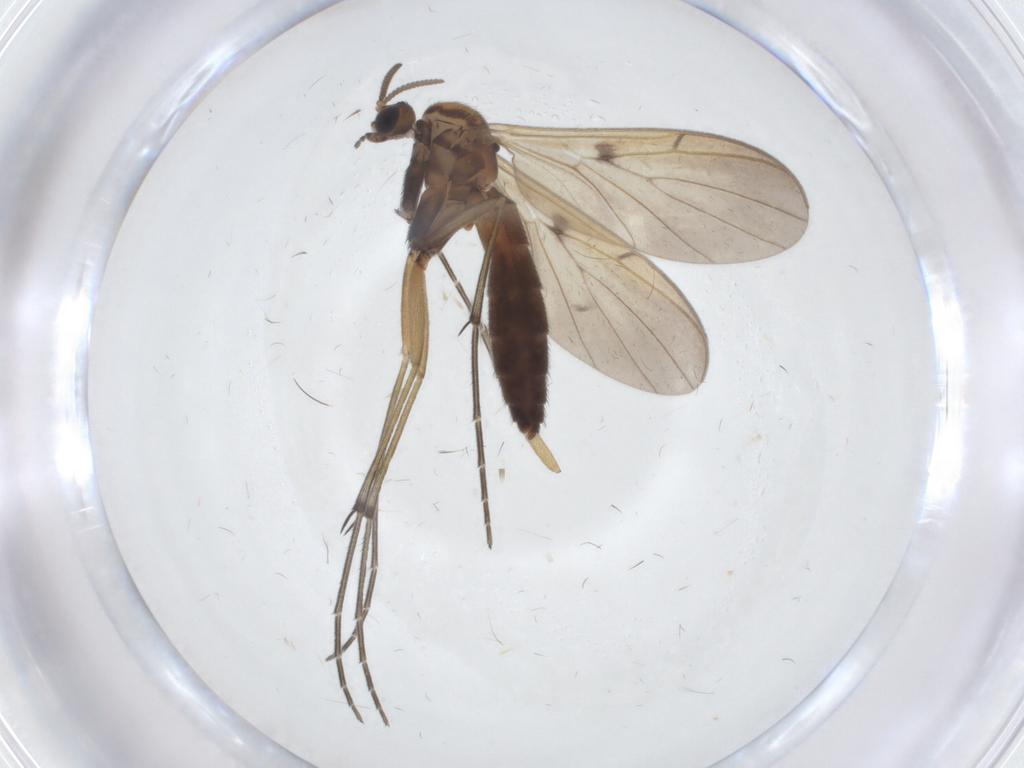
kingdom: Animalia
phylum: Arthropoda
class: Insecta
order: Diptera
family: Keroplatidae
